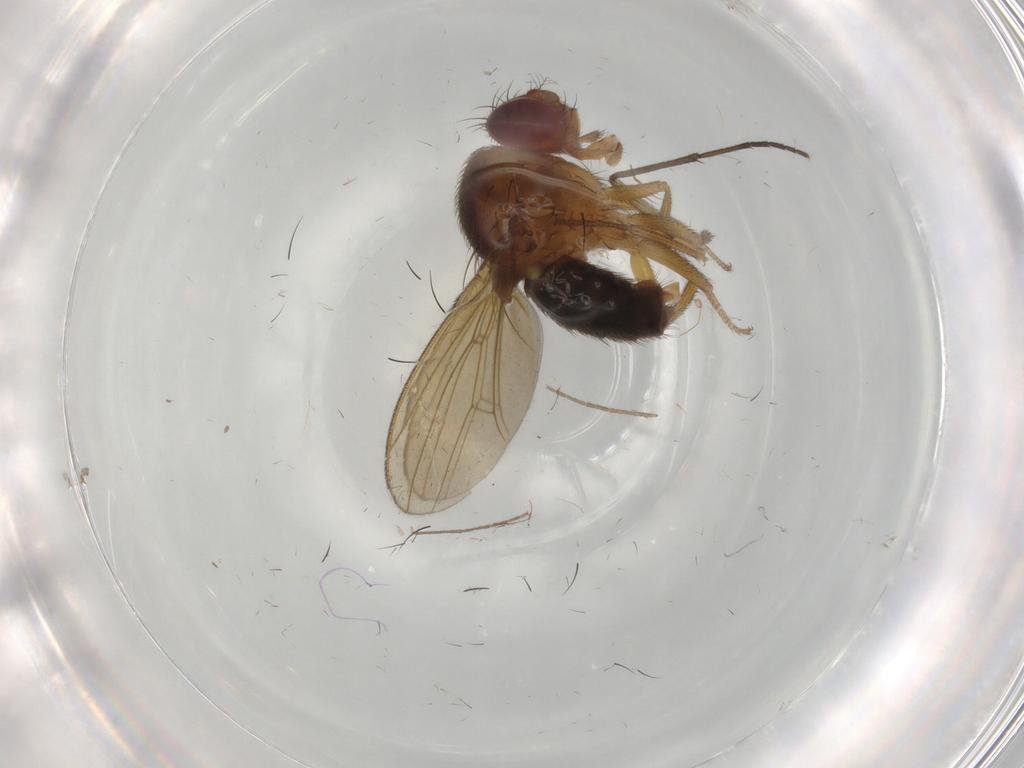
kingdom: Animalia
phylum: Arthropoda
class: Insecta
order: Diptera
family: Drosophilidae
